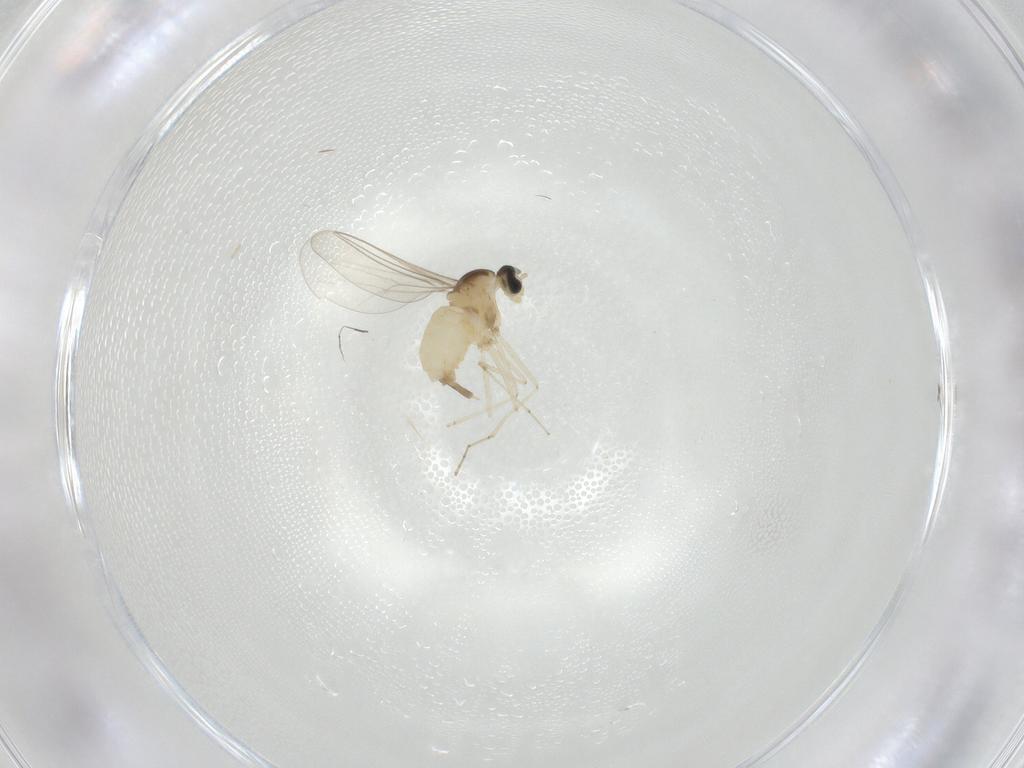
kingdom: Animalia
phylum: Arthropoda
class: Insecta
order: Diptera
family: Cecidomyiidae
